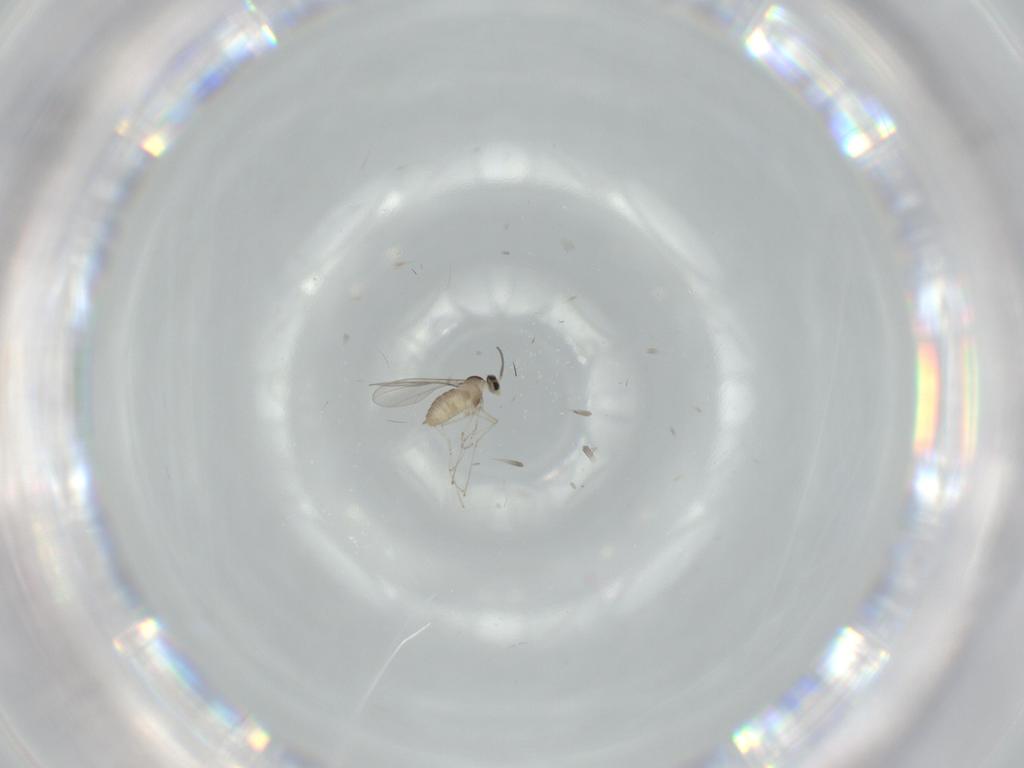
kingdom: Animalia
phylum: Arthropoda
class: Insecta
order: Diptera
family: Cecidomyiidae
